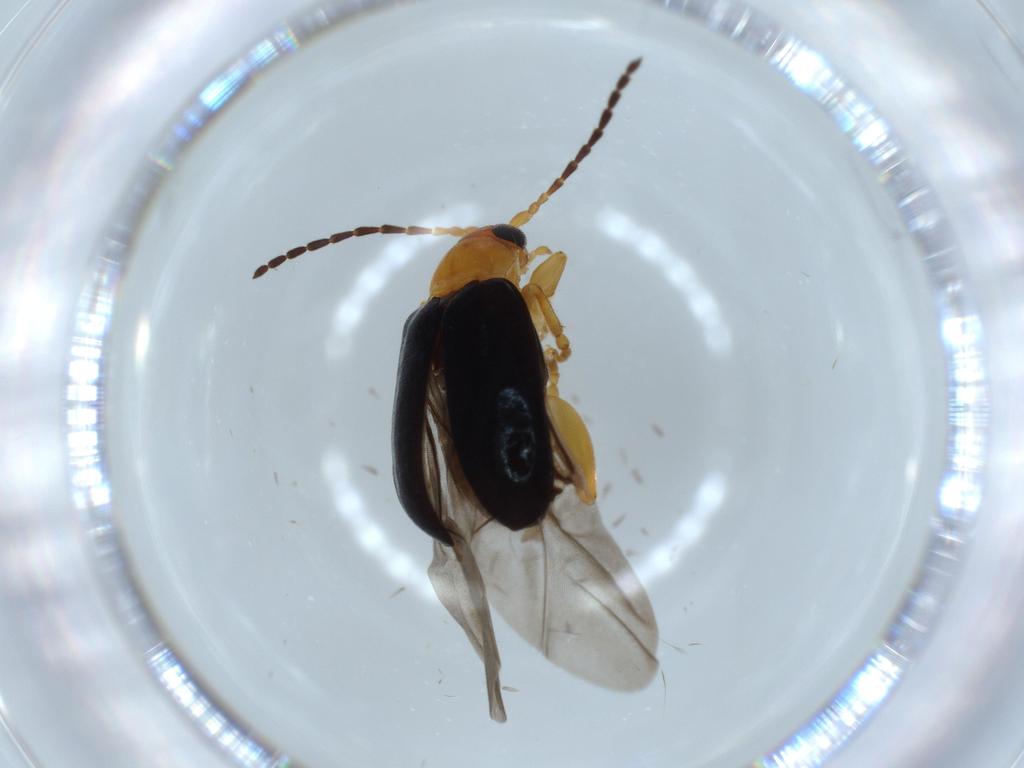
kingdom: Animalia
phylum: Arthropoda
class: Insecta
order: Coleoptera
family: Chrysomelidae
